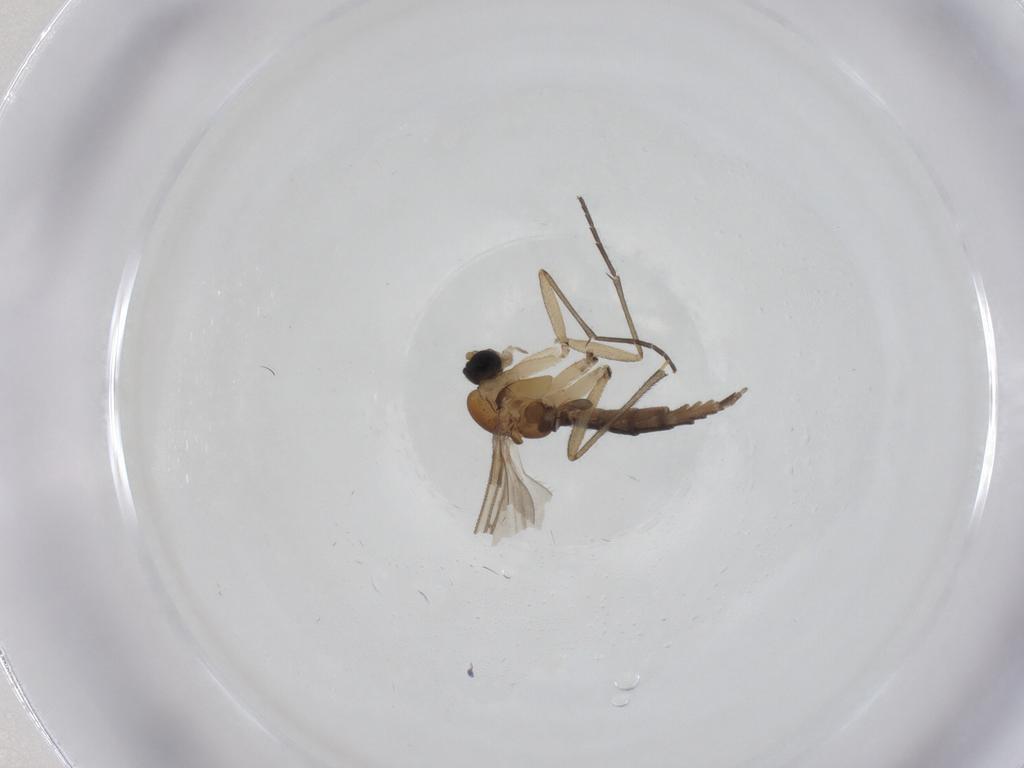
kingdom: Animalia
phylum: Arthropoda
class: Insecta
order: Diptera
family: Sciaridae
